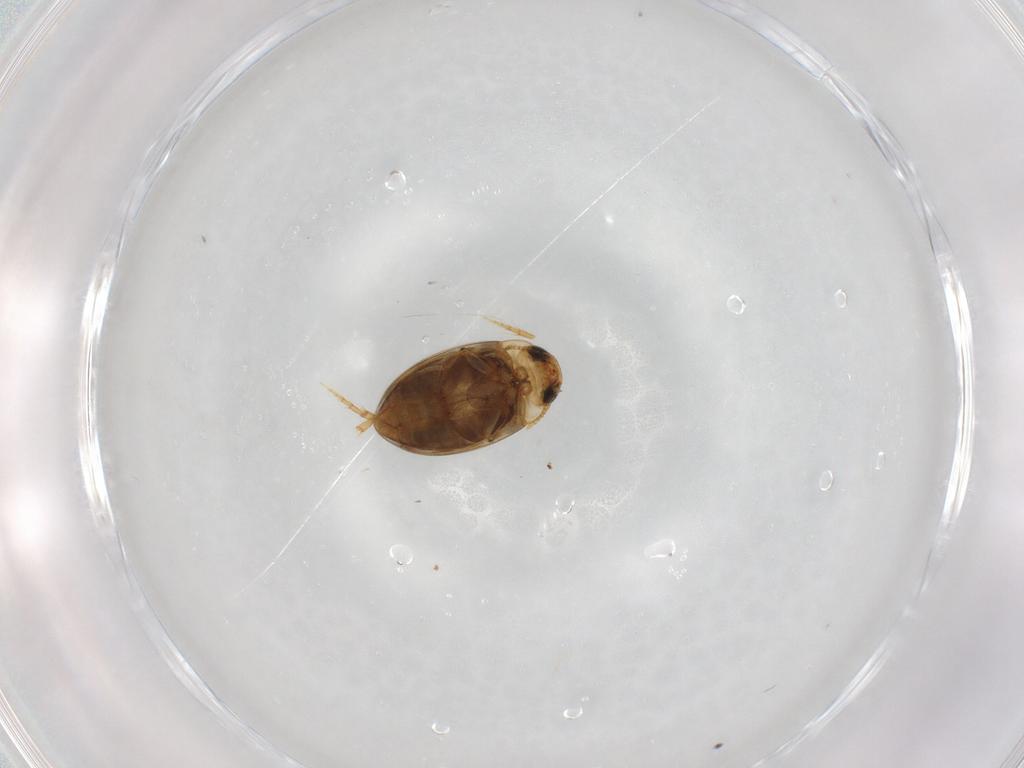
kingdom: Animalia
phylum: Arthropoda
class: Insecta
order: Coleoptera
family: Dytiscidae
